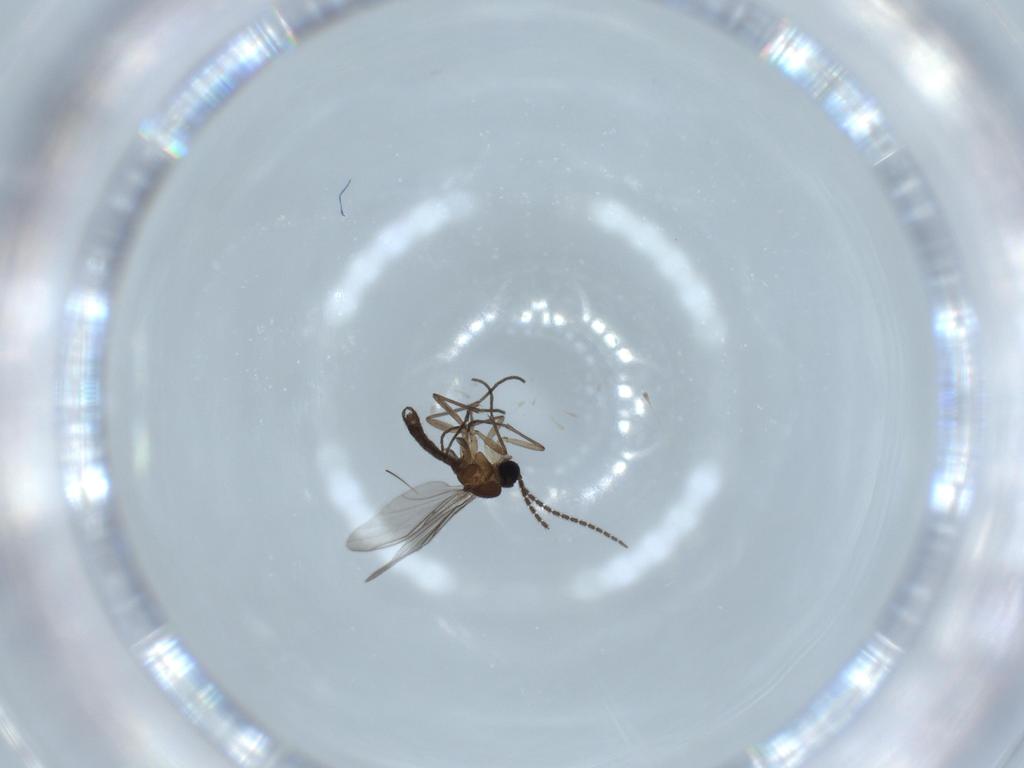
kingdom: Animalia
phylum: Arthropoda
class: Insecta
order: Diptera
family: Sciaridae
